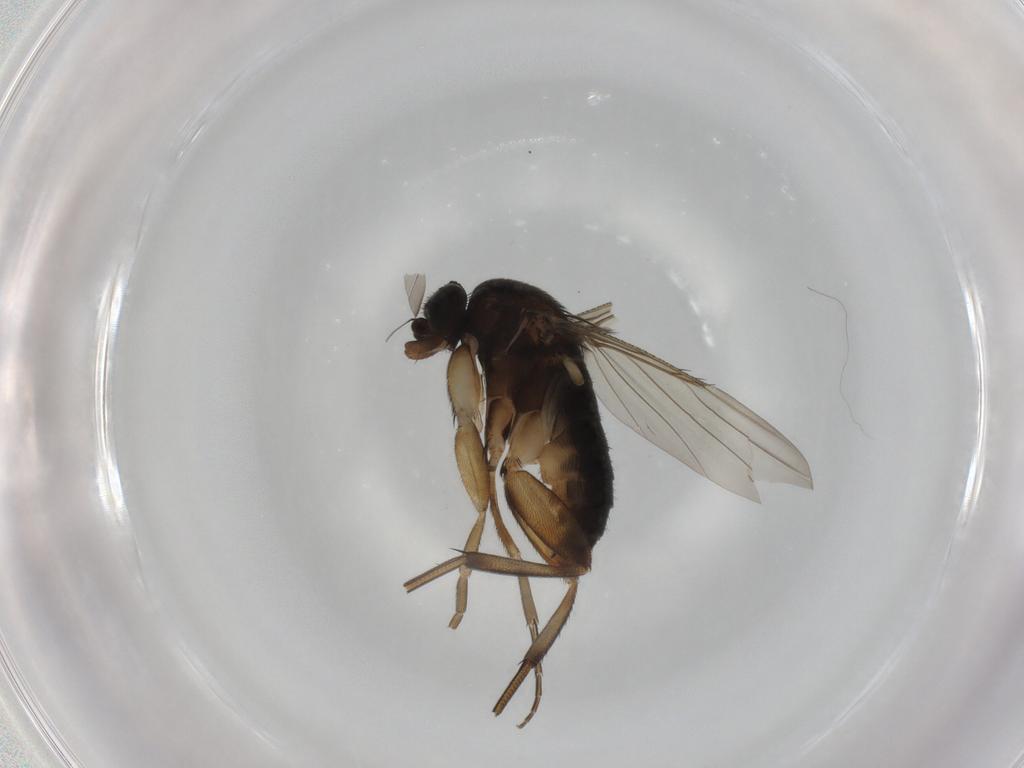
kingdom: Animalia
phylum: Arthropoda
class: Insecta
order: Diptera
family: Phoridae
